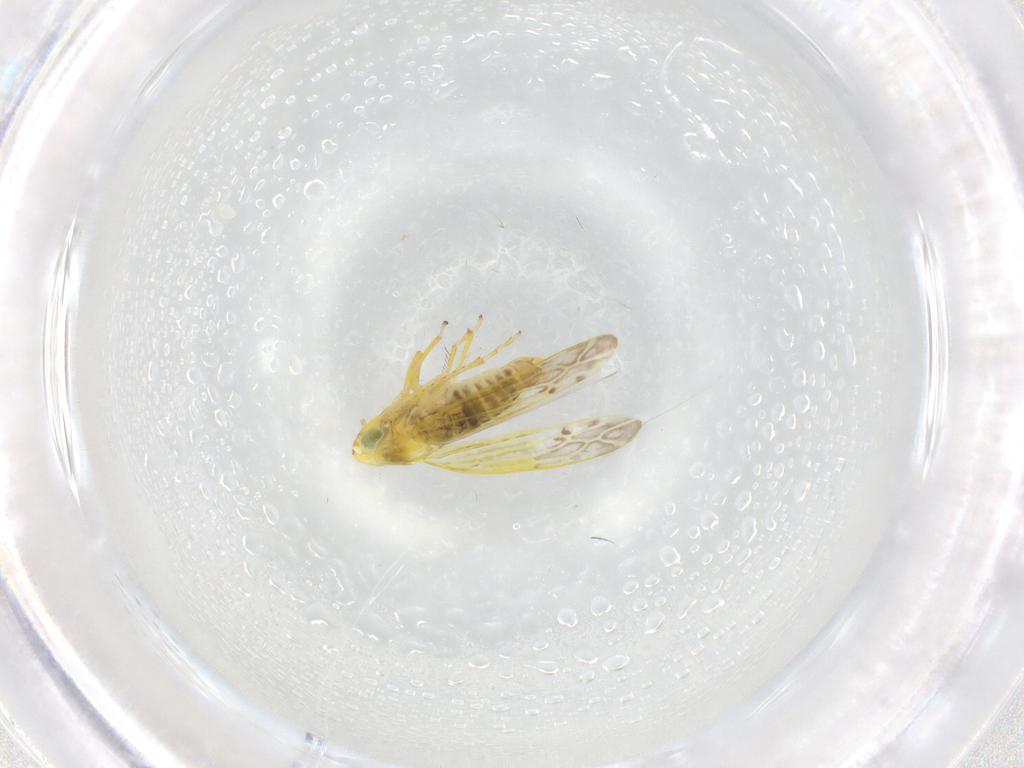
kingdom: Animalia
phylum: Arthropoda
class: Insecta
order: Hemiptera
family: Cicadellidae
